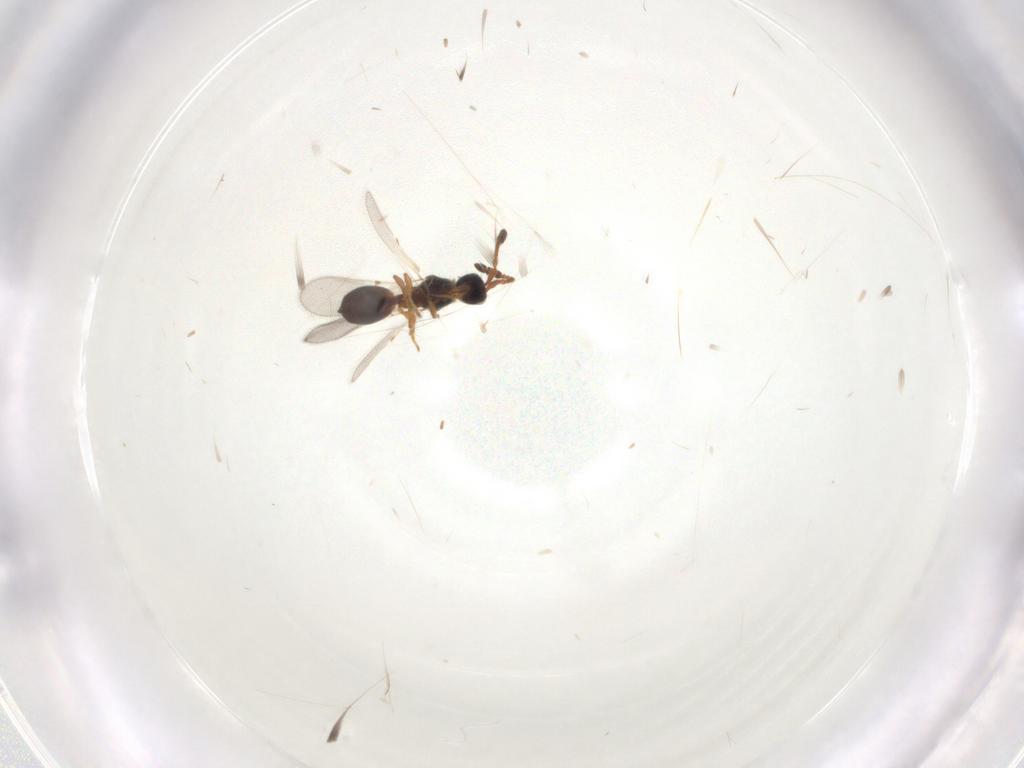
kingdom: Animalia
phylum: Arthropoda
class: Insecta
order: Hymenoptera
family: Diapriidae
